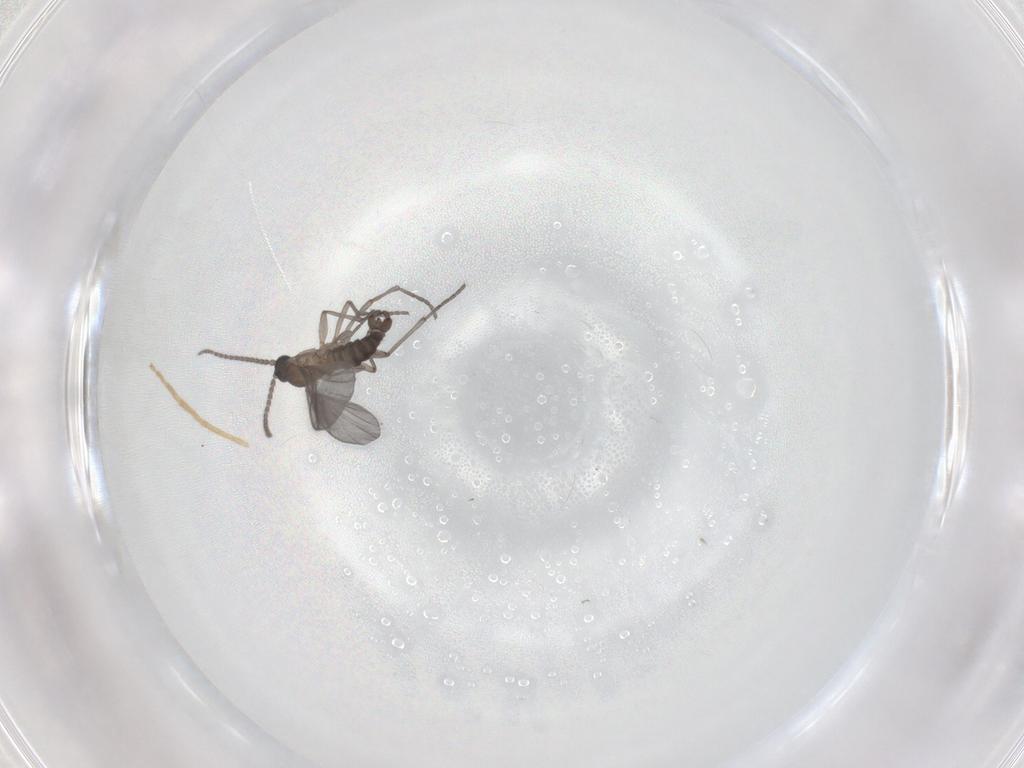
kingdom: Animalia
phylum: Arthropoda
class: Insecta
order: Diptera
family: Sciaridae
